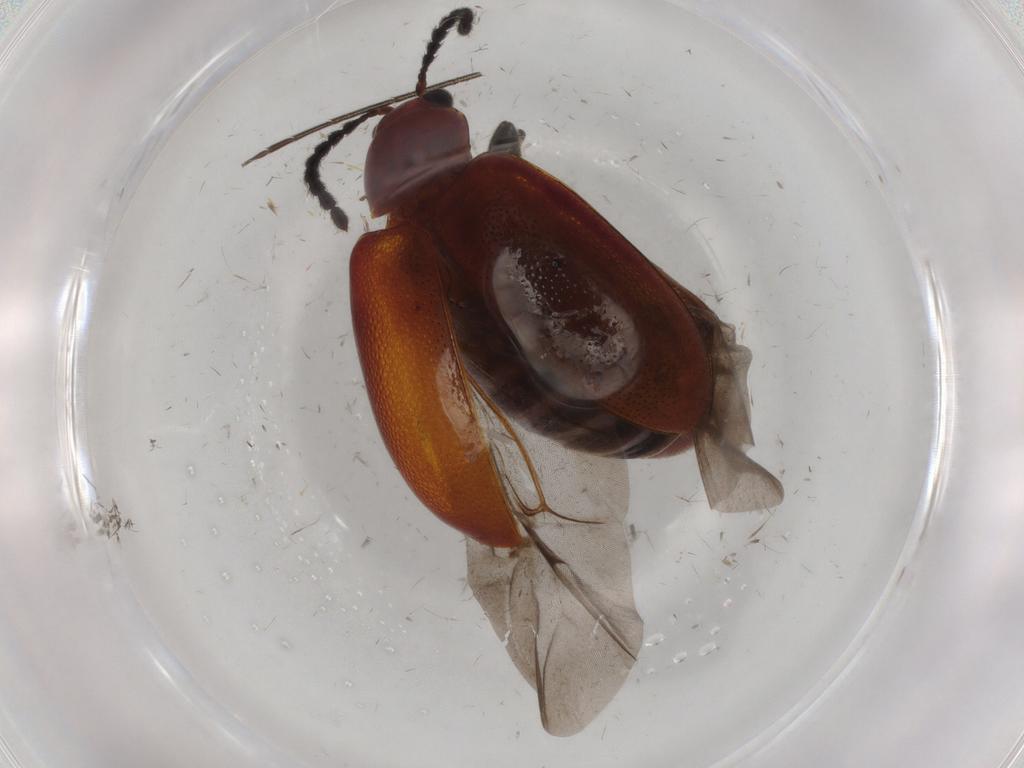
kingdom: Animalia
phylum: Arthropoda
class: Insecta
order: Coleoptera
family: Chrysomelidae
